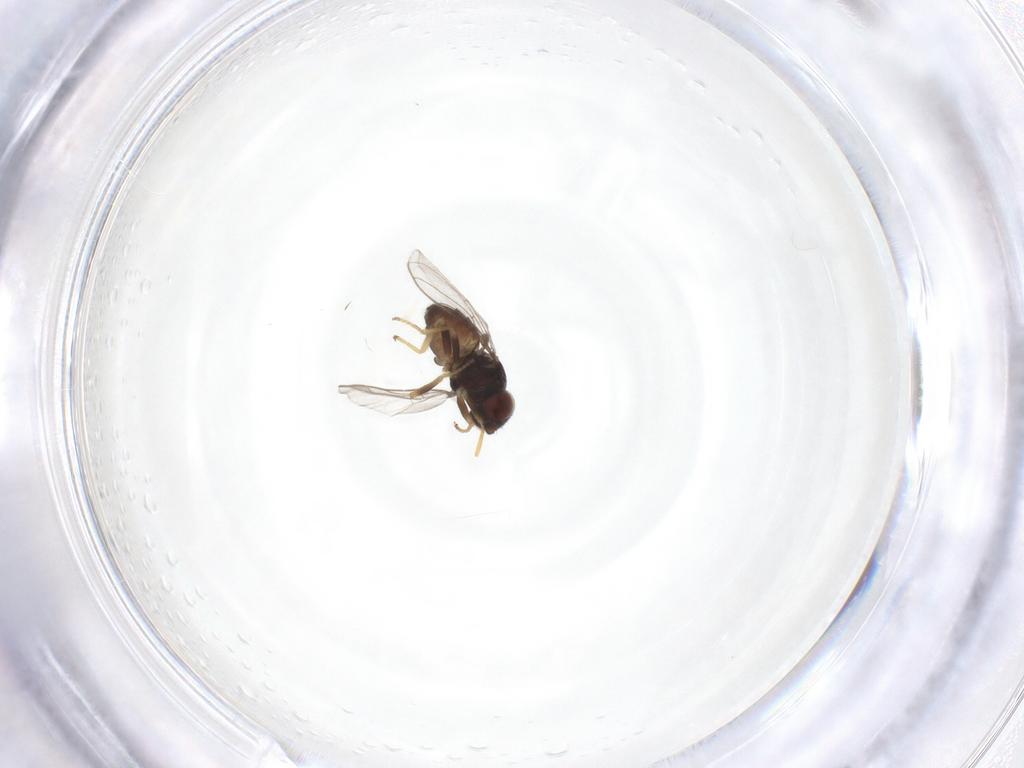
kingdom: Animalia
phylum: Arthropoda
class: Insecta
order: Diptera
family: Chloropidae
